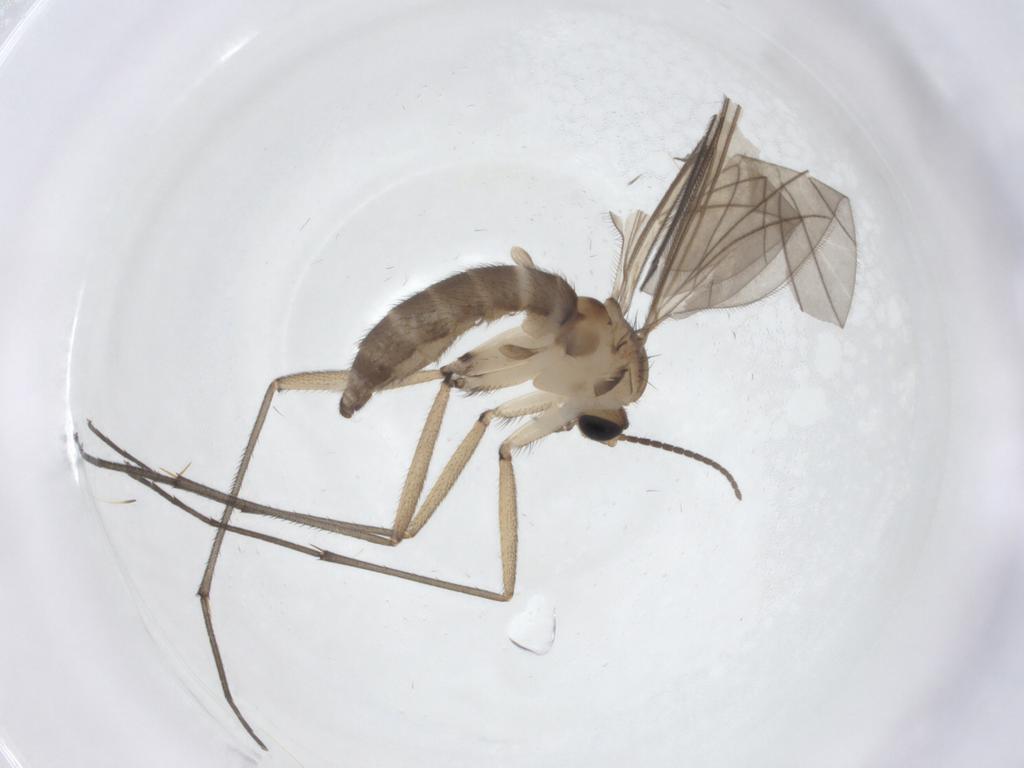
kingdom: Animalia
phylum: Arthropoda
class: Insecta
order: Diptera
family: Sciaridae
